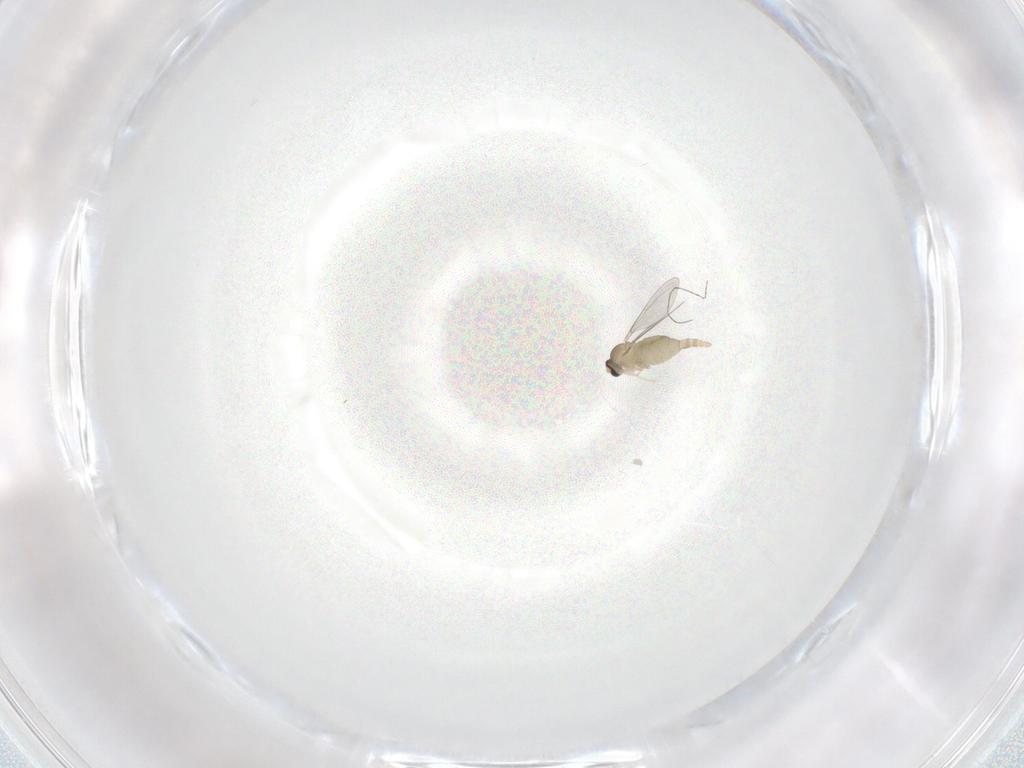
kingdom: Animalia
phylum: Arthropoda
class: Insecta
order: Diptera
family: Cecidomyiidae
